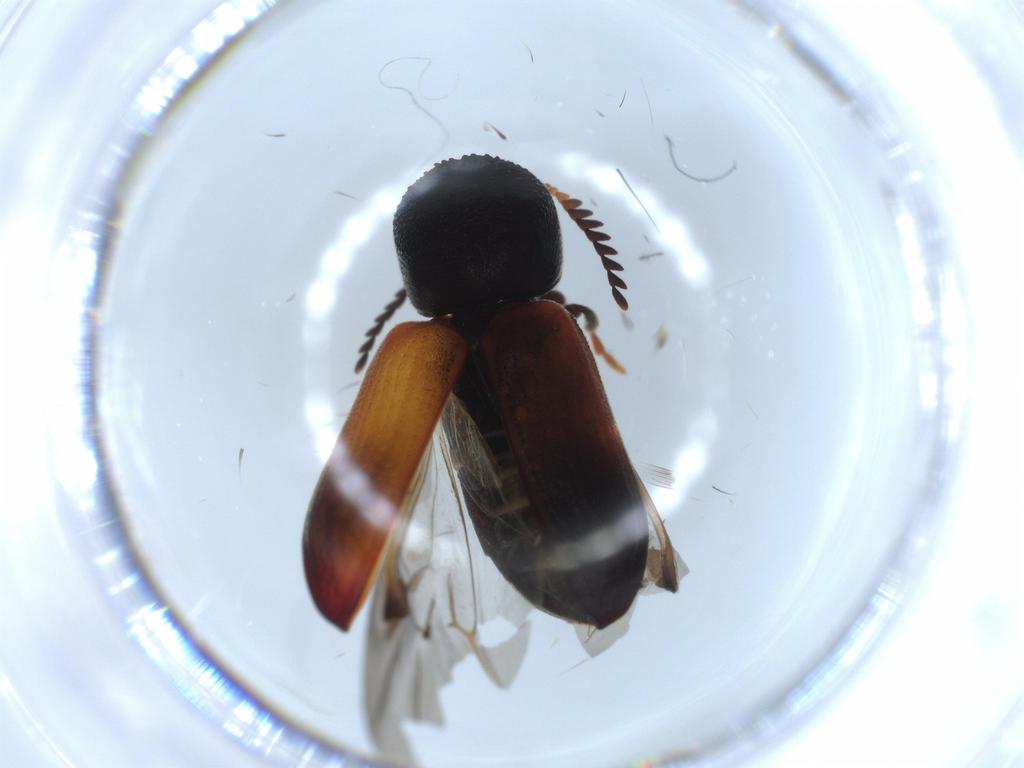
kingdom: Animalia
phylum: Arthropoda
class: Insecta
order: Coleoptera
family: Ptinidae
